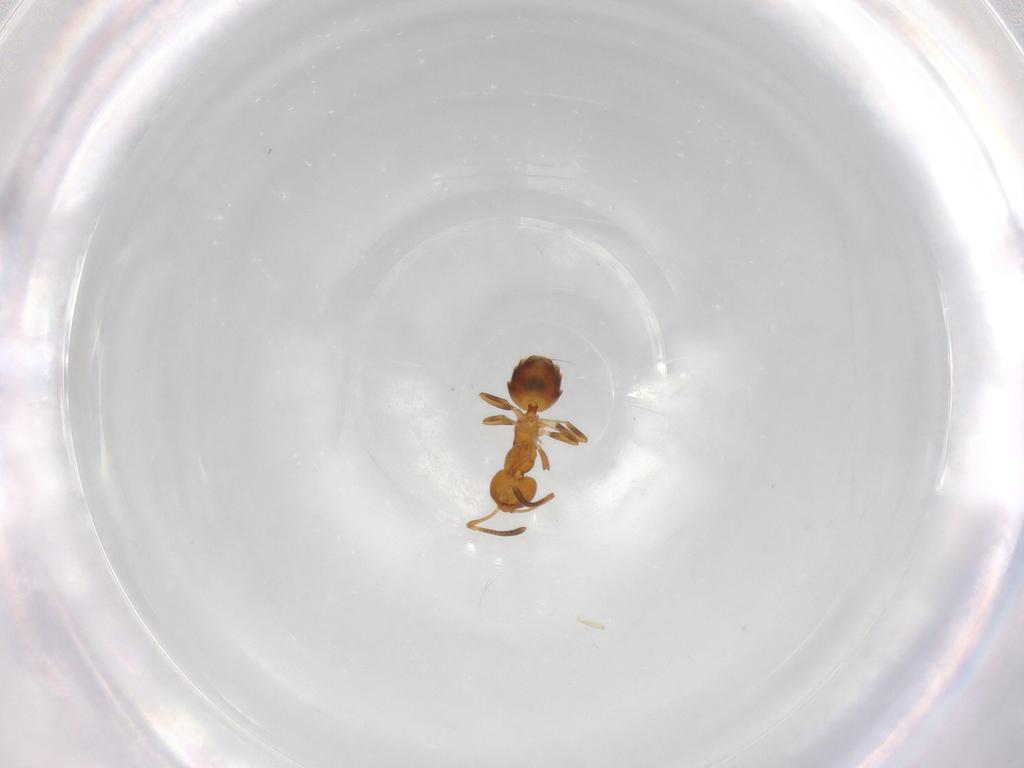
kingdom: Animalia
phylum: Arthropoda
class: Insecta
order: Hymenoptera
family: Formicidae
